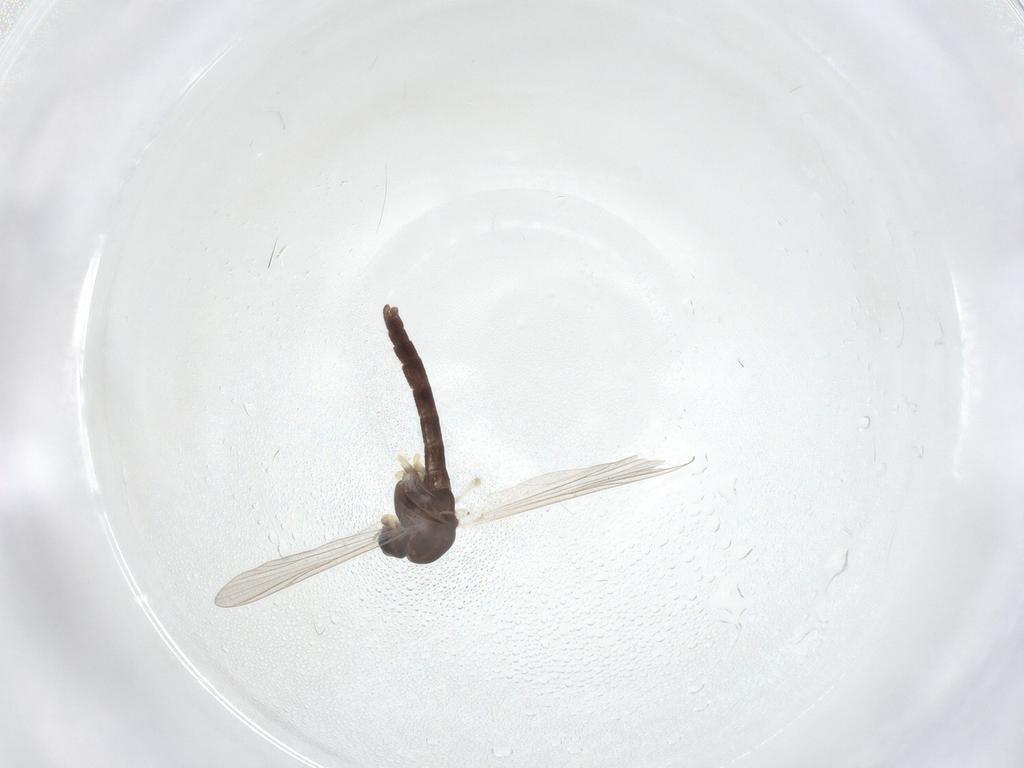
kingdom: Animalia
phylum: Arthropoda
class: Insecta
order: Diptera
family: Chironomidae
